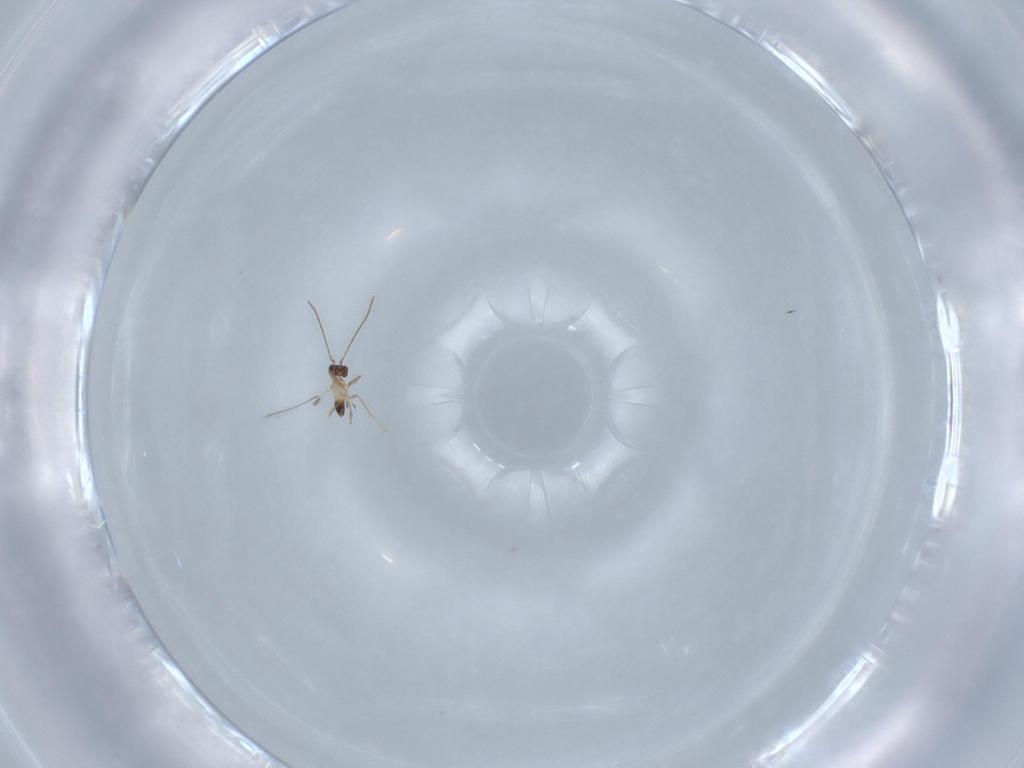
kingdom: Animalia
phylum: Arthropoda
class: Insecta
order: Hymenoptera
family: Mymaridae
